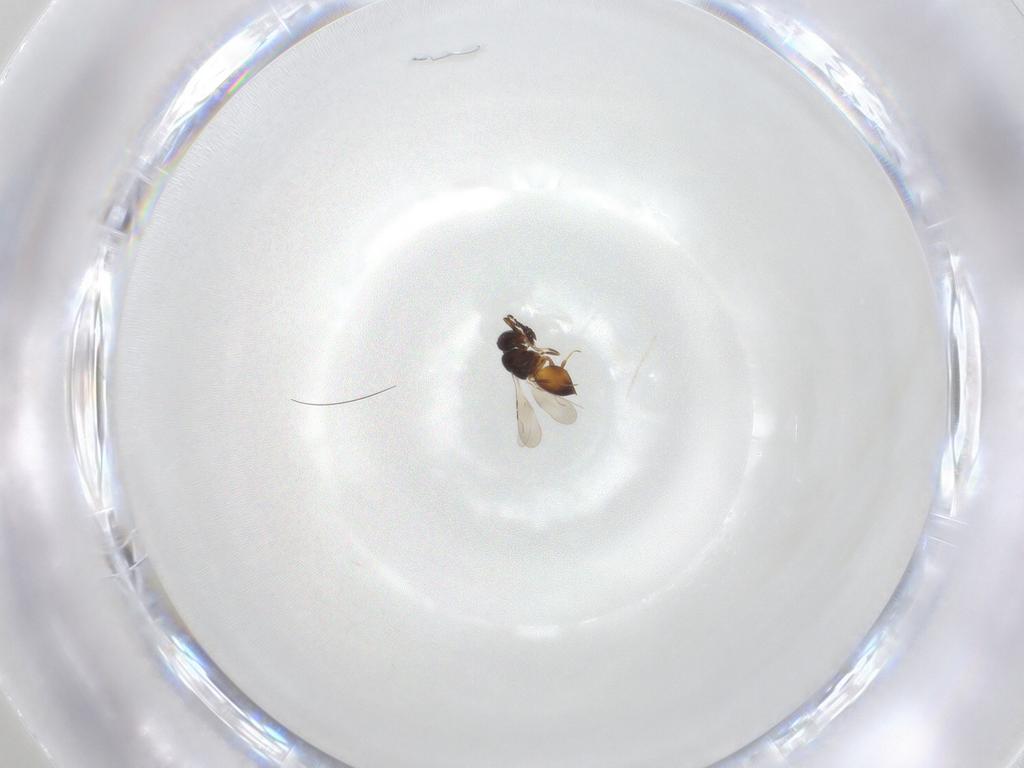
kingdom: Animalia
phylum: Arthropoda
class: Insecta
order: Hymenoptera
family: Ceraphronidae
